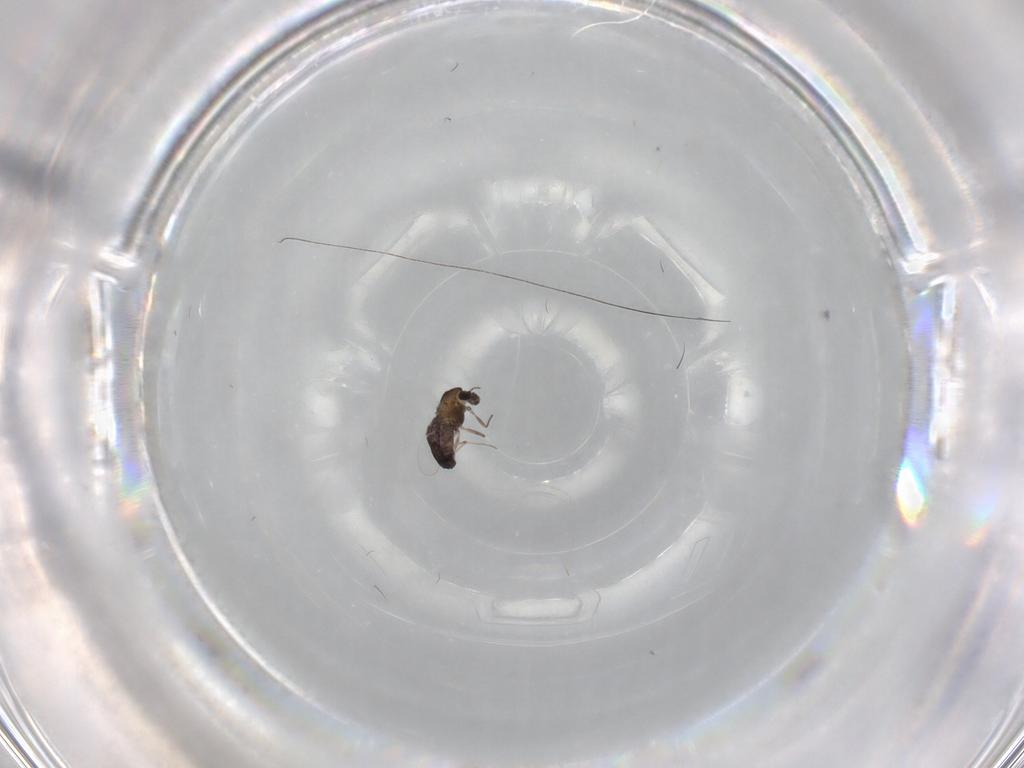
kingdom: Animalia
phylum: Arthropoda
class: Insecta
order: Diptera
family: Chironomidae
